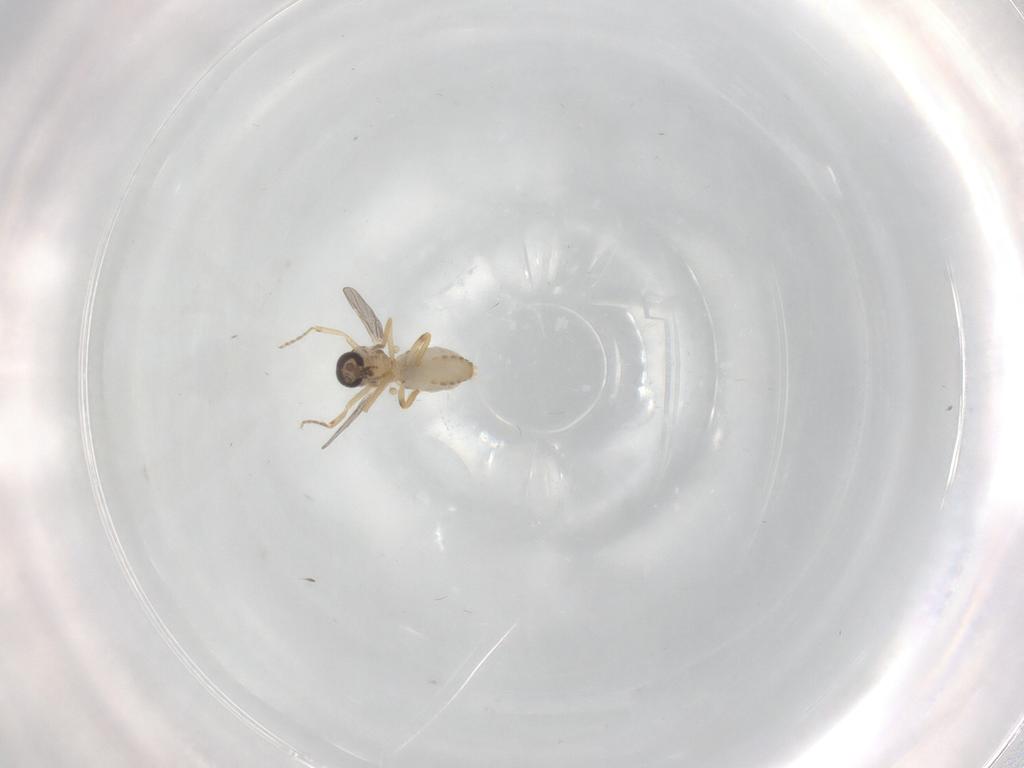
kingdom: Animalia
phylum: Arthropoda
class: Insecta
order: Diptera
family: Ceratopogonidae
